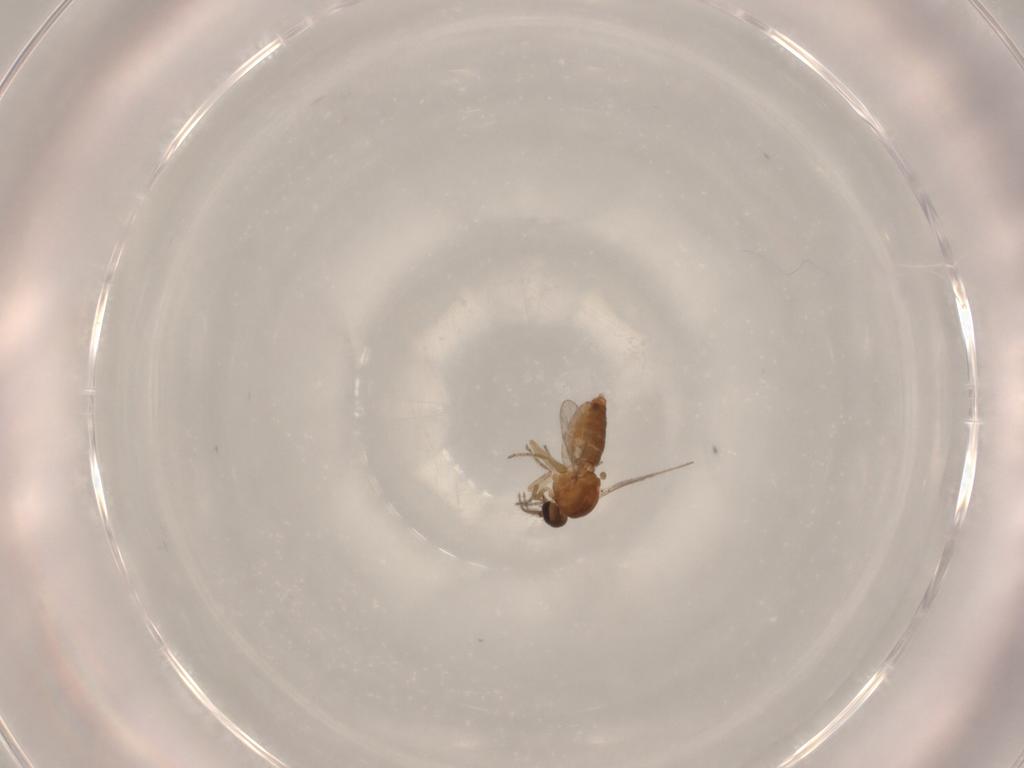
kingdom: Animalia
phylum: Arthropoda
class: Insecta
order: Diptera
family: Ceratopogonidae
